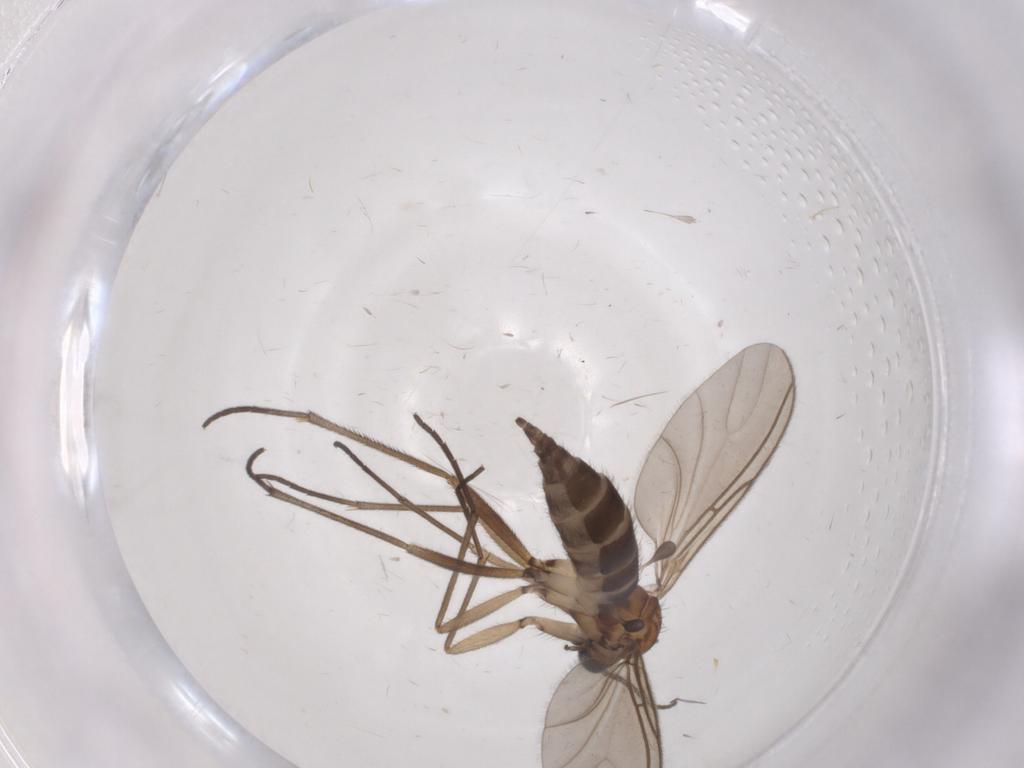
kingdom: Animalia
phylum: Arthropoda
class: Insecta
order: Diptera
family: Sciaridae
